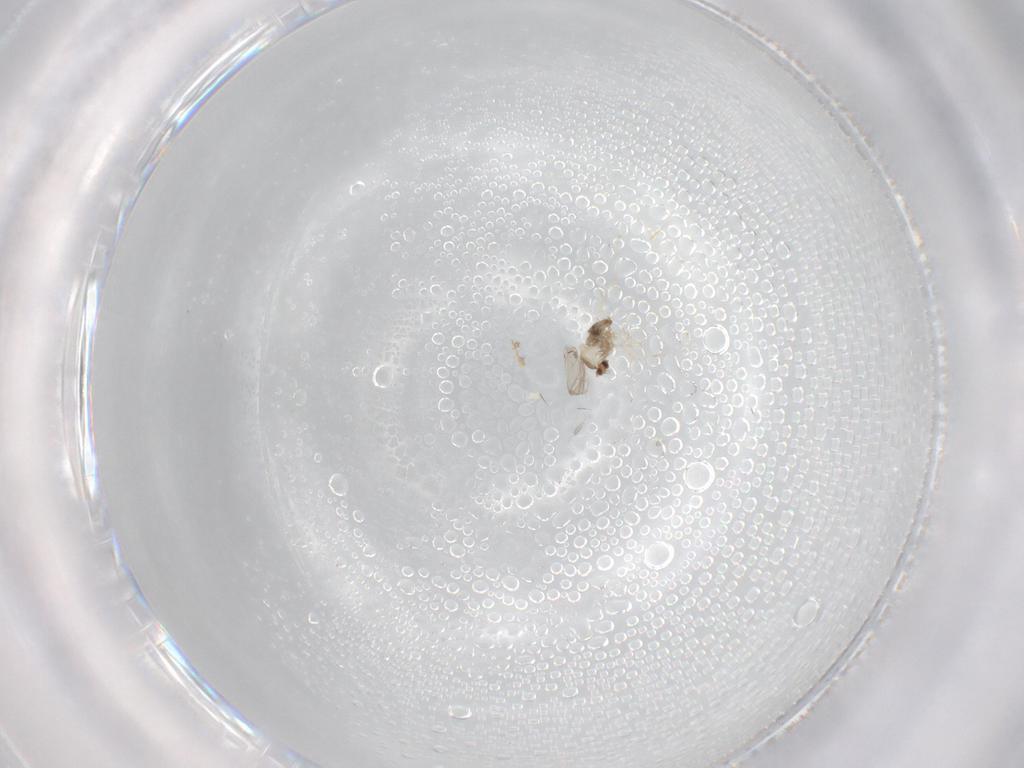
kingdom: Animalia
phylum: Arthropoda
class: Insecta
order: Diptera
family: Cecidomyiidae
